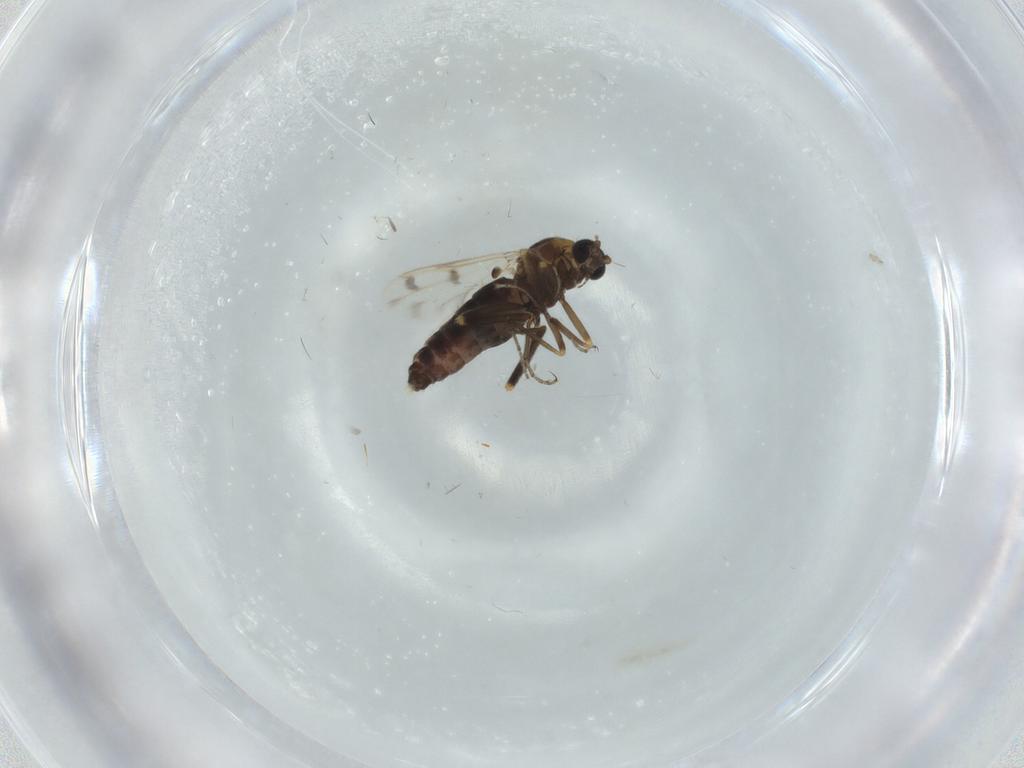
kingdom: Animalia
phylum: Arthropoda
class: Insecta
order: Diptera
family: Ceratopogonidae
